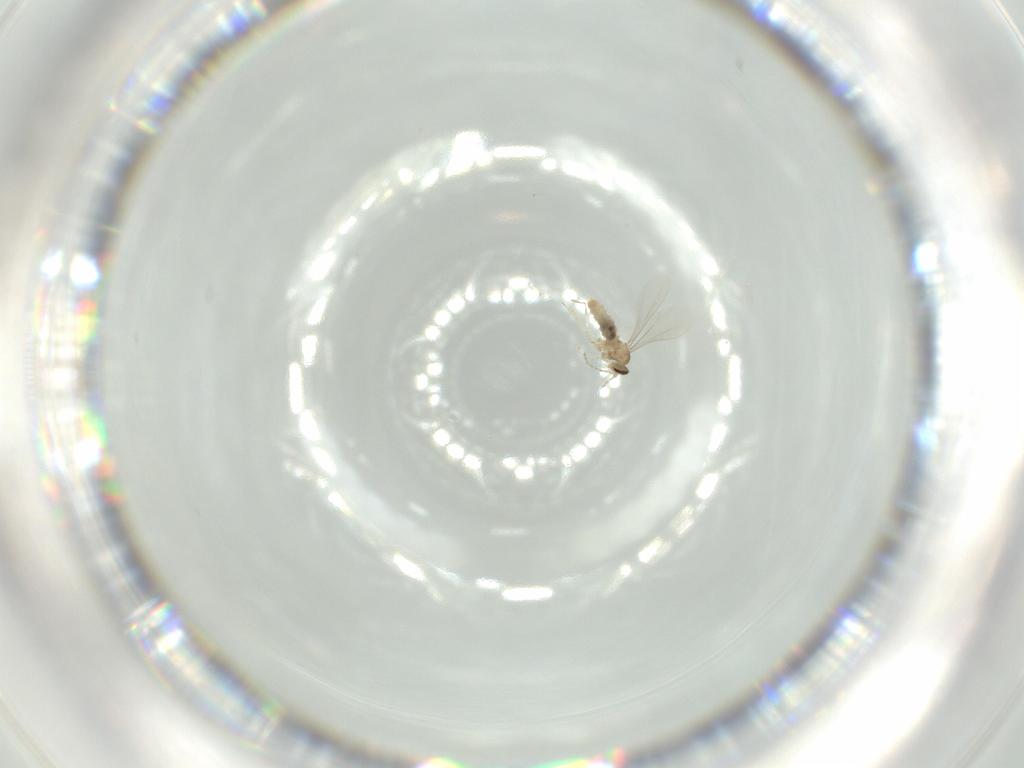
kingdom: Animalia
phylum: Arthropoda
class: Insecta
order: Diptera
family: Cecidomyiidae
